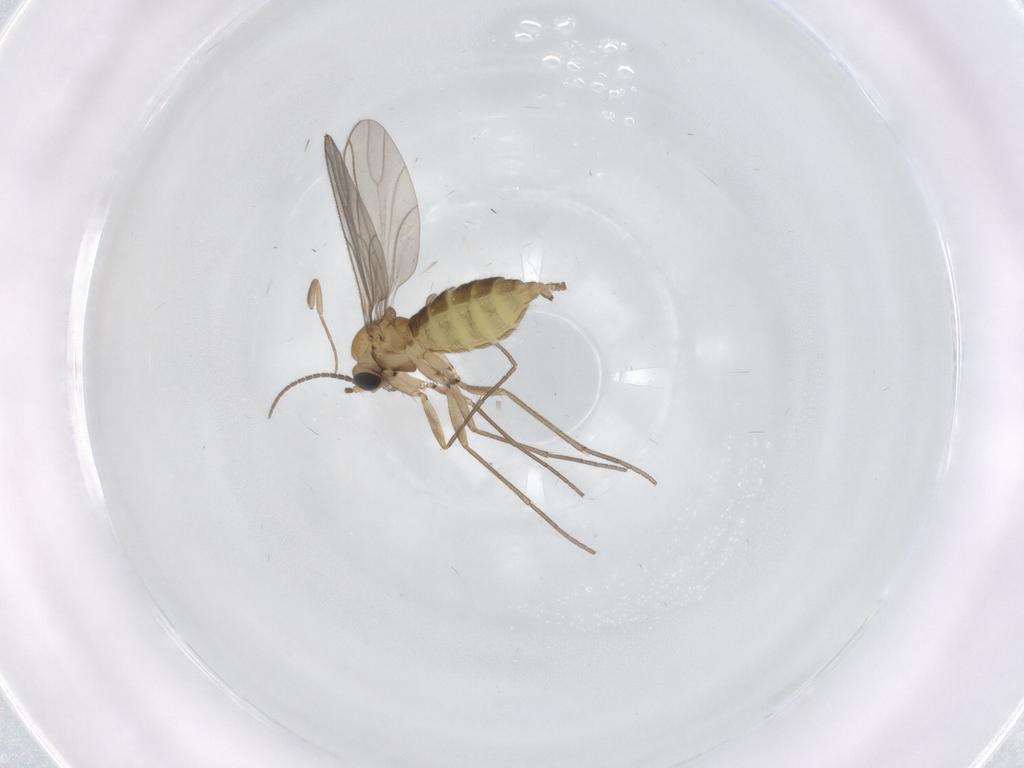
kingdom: Animalia
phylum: Arthropoda
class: Insecta
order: Diptera
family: Sciaridae
